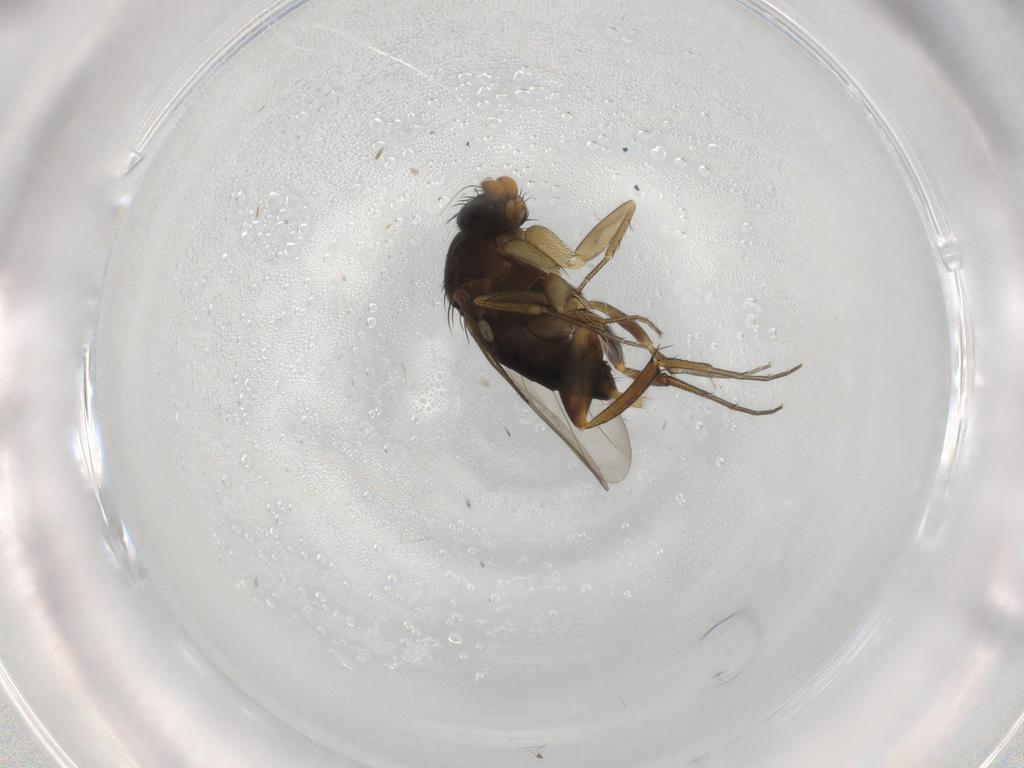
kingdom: Animalia
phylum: Arthropoda
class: Insecta
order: Diptera
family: Phoridae
